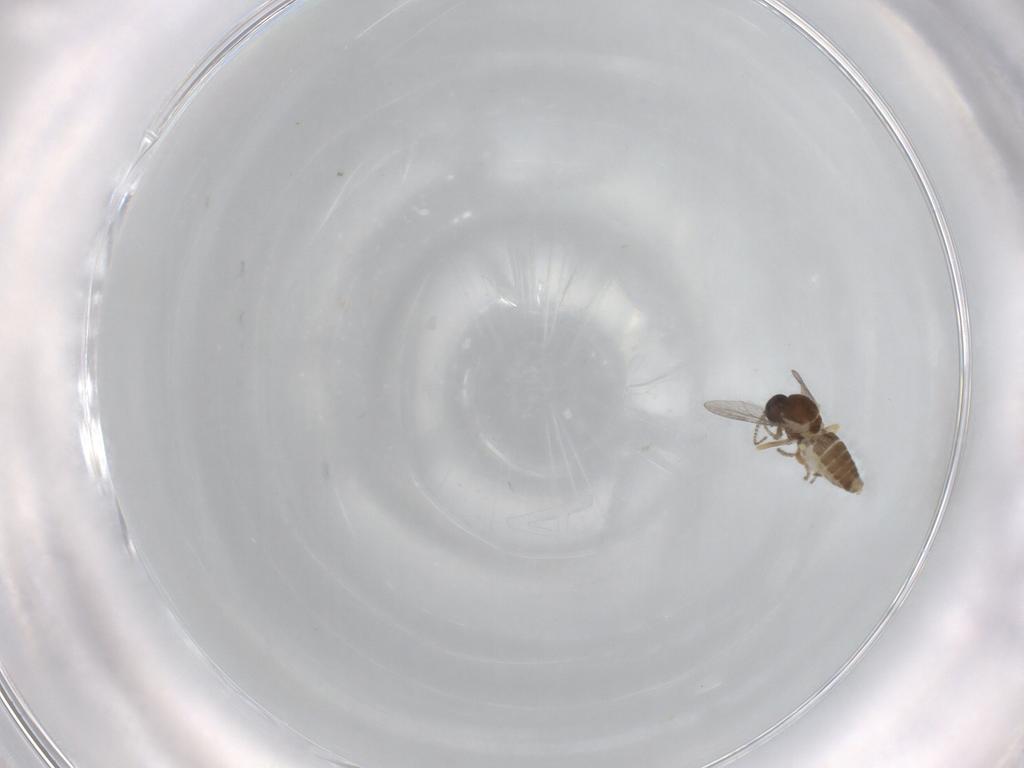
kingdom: Animalia
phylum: Arthropoda
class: Insecta
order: Diptera
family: Ceratopogonidae
